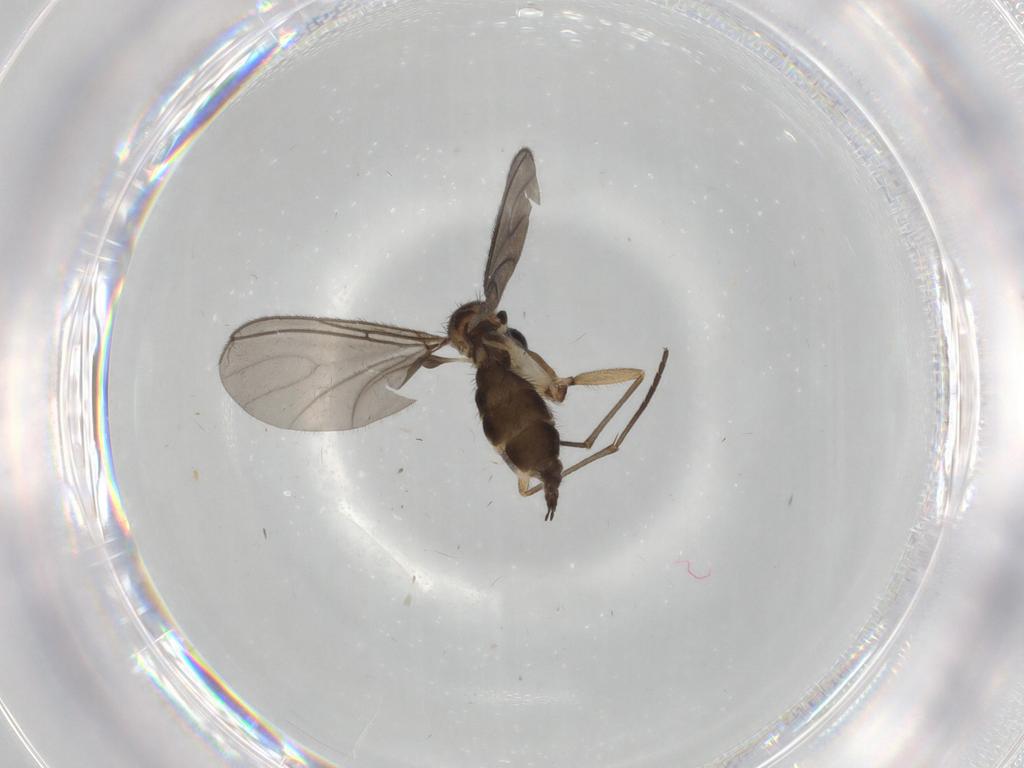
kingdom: Animalia
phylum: Arthropoda
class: Insecta
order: Diptera
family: Sciaridae
